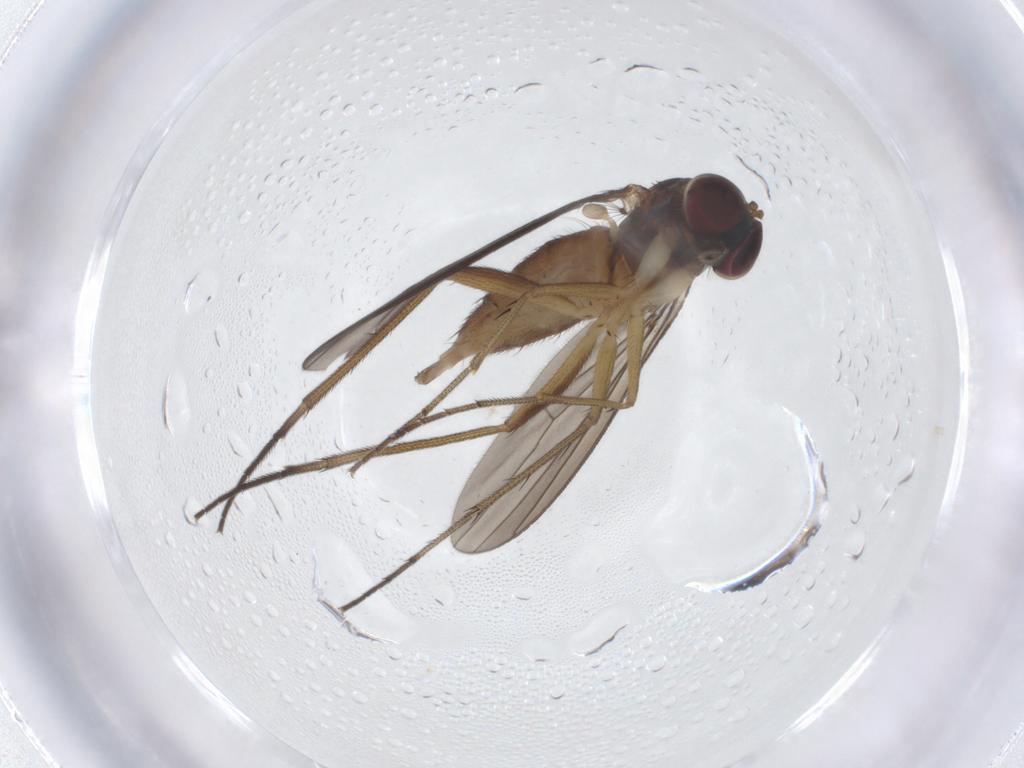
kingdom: Animalia
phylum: Arthropoda
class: Insecta
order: Diptera
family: Dolichopodidae
